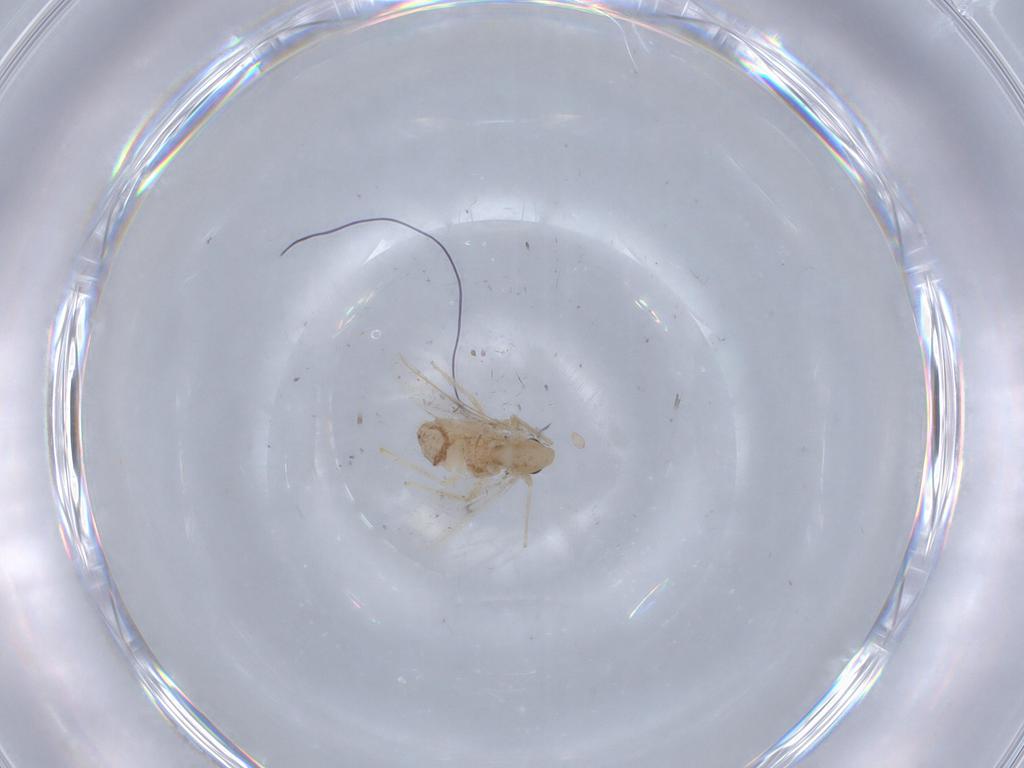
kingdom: Animalia
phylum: Arthropoda
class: Insecta
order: Diptera
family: Chironomidae
